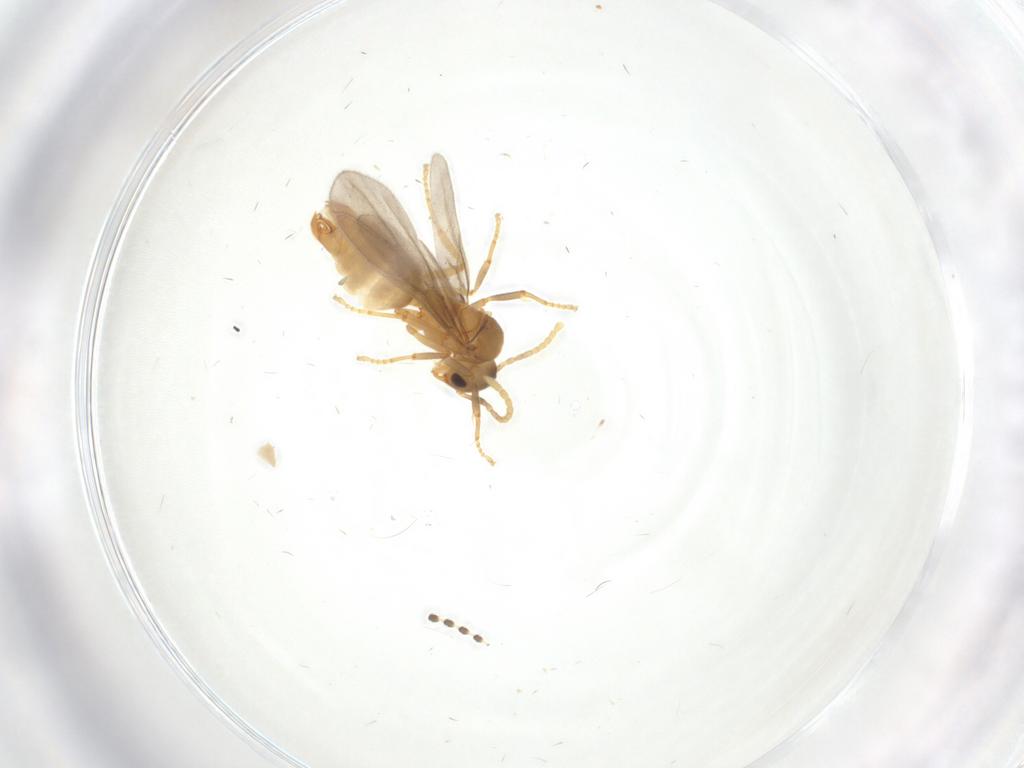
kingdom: Animalia
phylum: Arthropoda
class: Insecta
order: Hymenoptera
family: Formicidae
